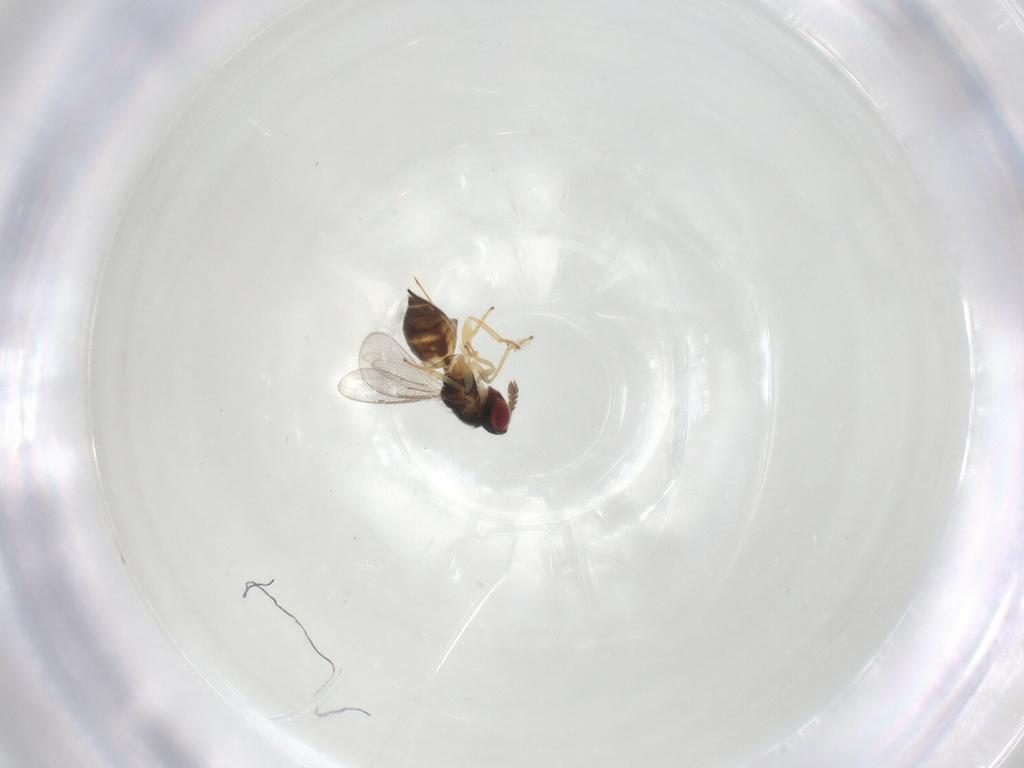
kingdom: Animalia
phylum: Arthropoda
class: Insecta
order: Hymenoptera
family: Eulophidae
